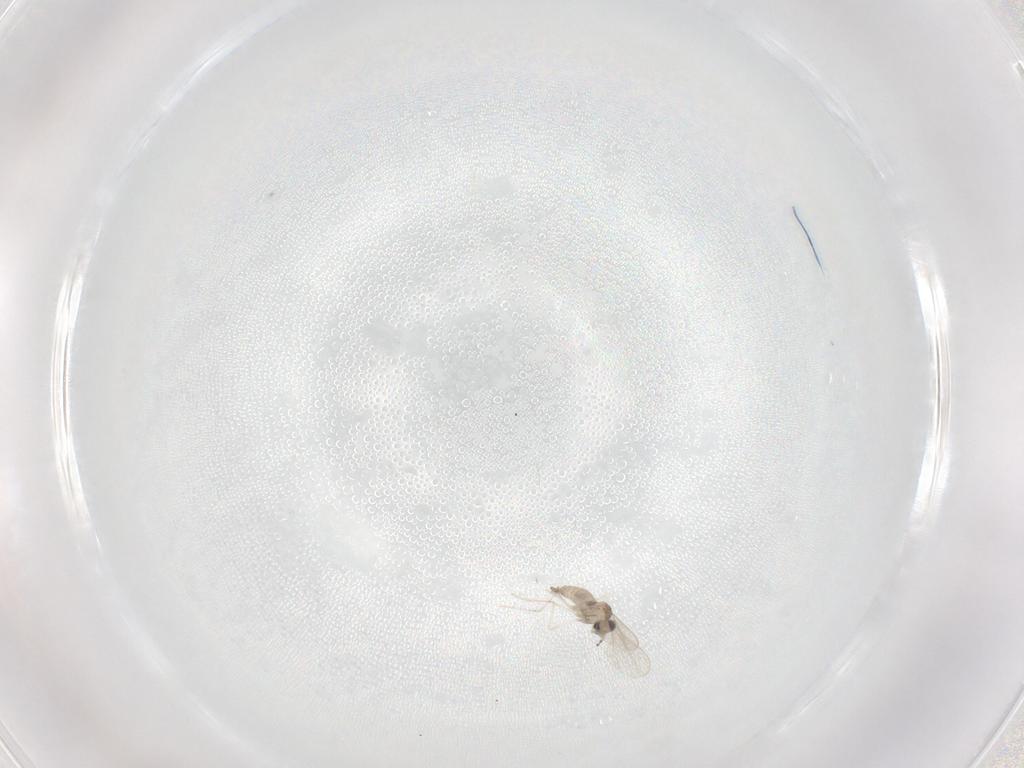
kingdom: Animalia
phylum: Arthropoda
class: Insecta
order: Diptera
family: Cecidomyiidae
